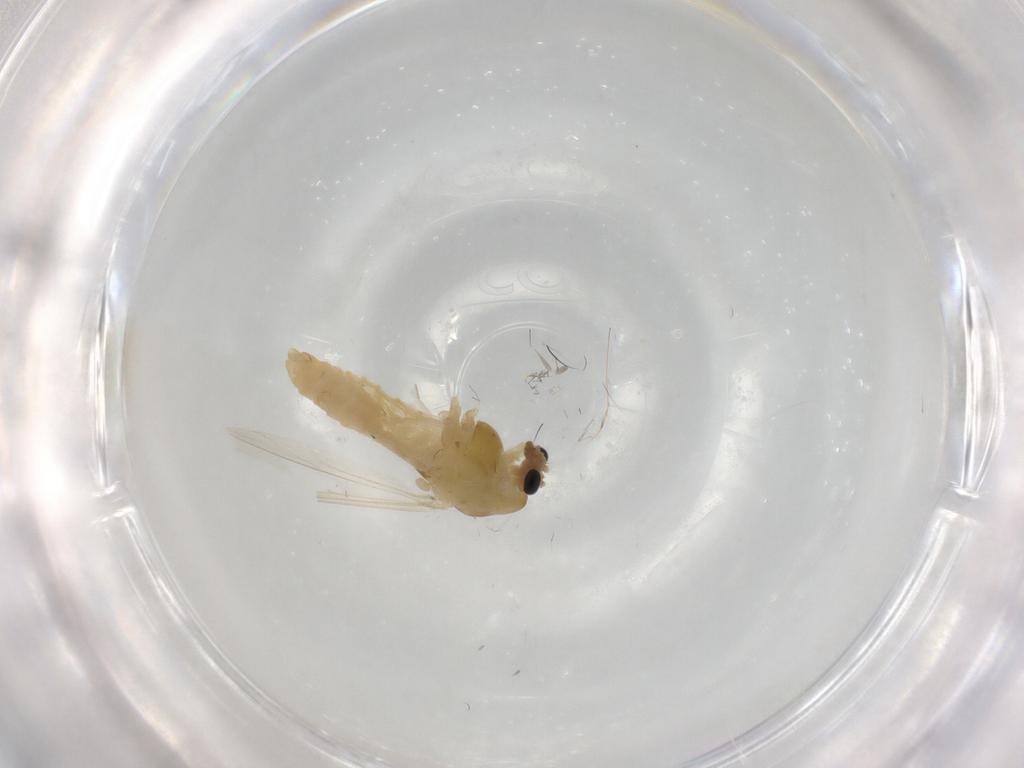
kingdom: Animalia
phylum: Arthropoda
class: Insecta
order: Diptera
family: Chironomidae
